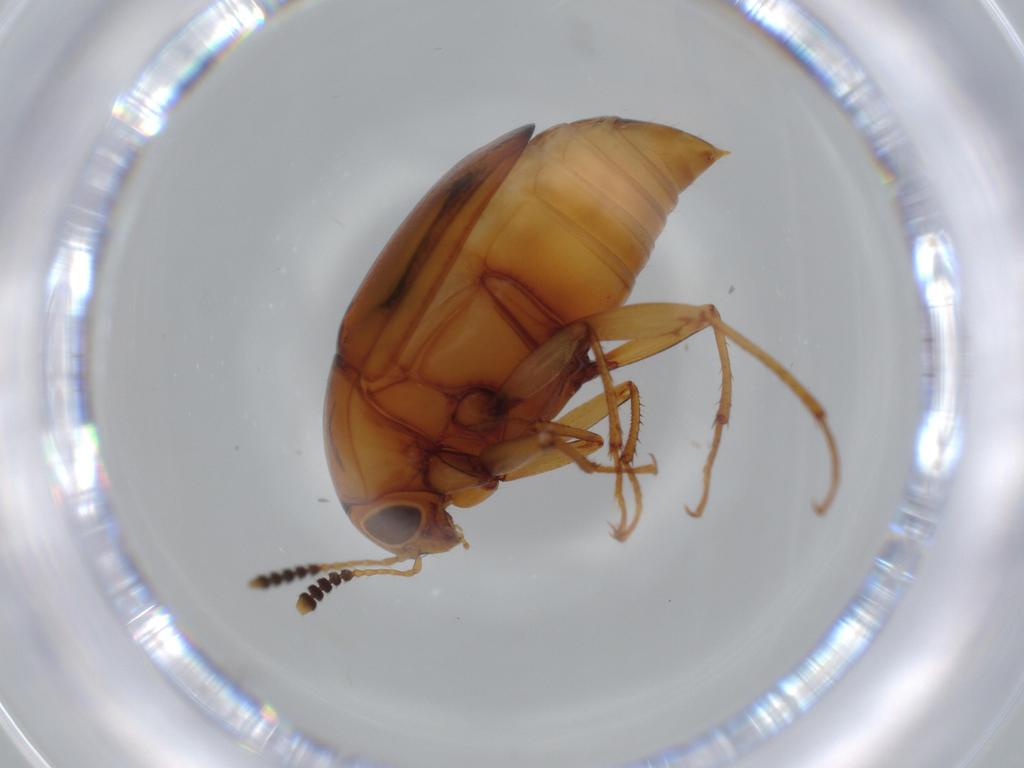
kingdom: Animalia
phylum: Arthropoda
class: Insecta
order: Coleoptera
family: Staphylinidae
